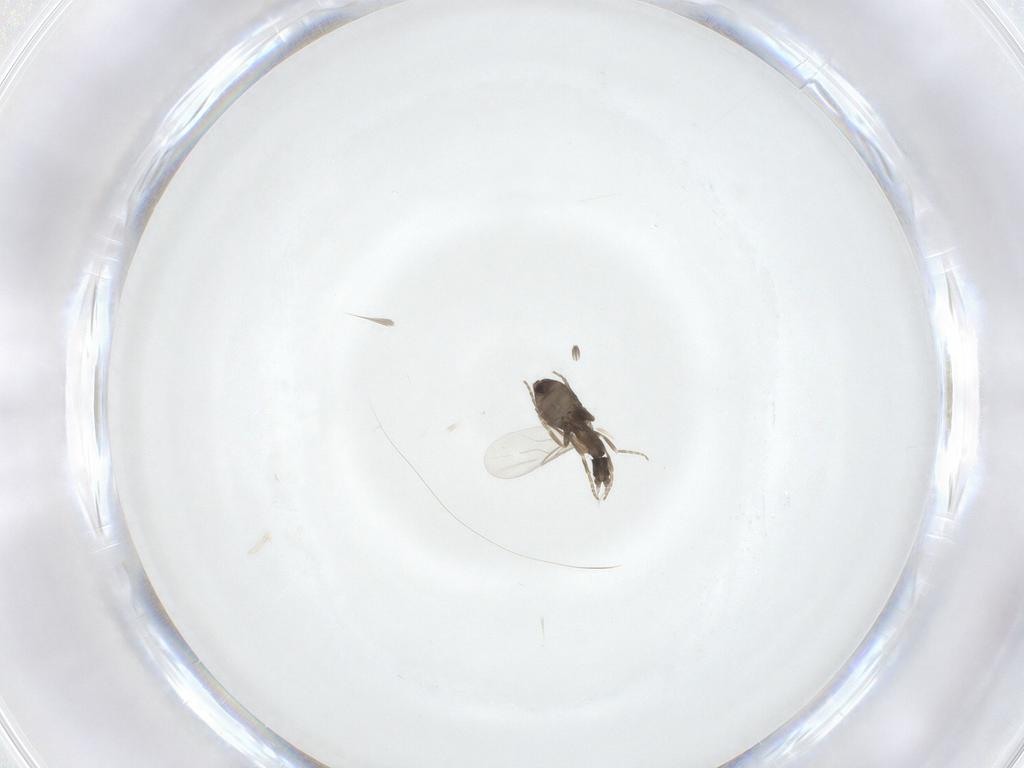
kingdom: Animalia
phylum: Arthropoda
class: Insecta
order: Diptera
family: Phoridae
